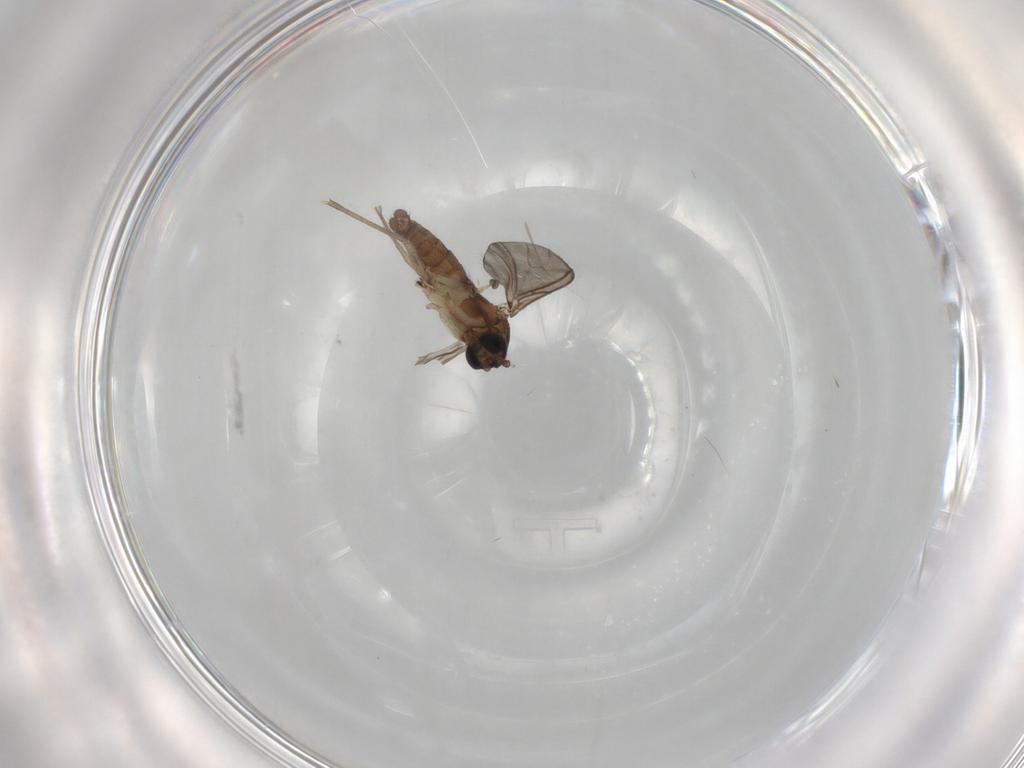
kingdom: Animalia
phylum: Arthropoda
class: Insecta
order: Diptera
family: Sciaridae
